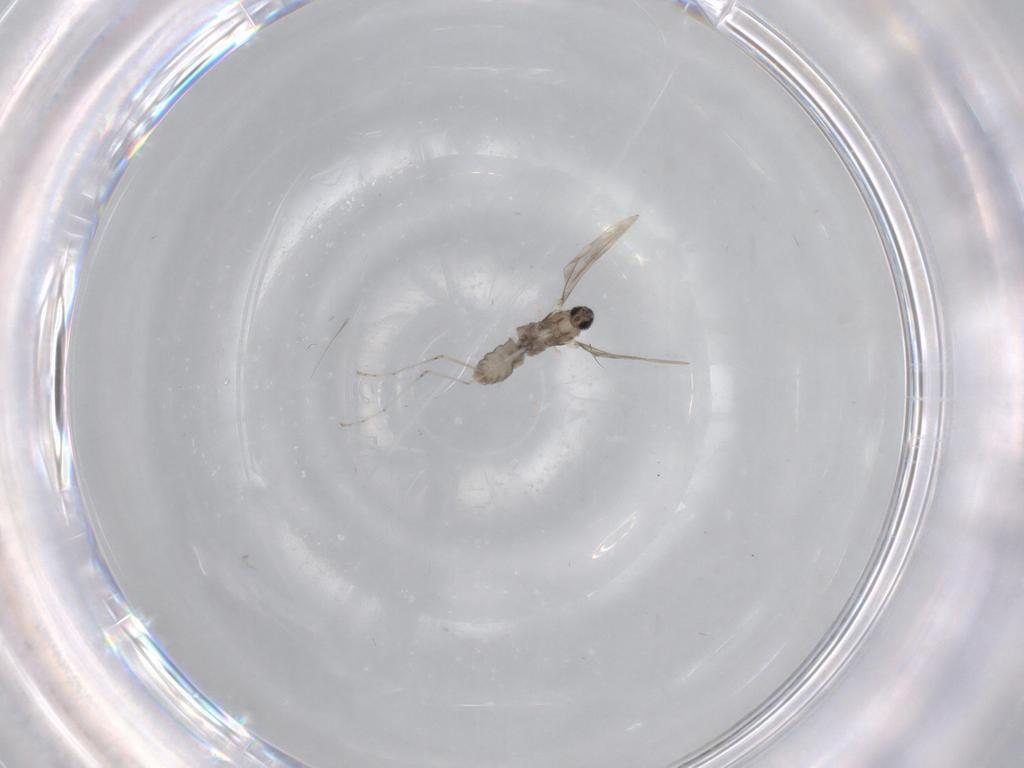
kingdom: Animalia
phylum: Arthropoda
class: Insecta
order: Diptera
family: Cecidomyiidae
